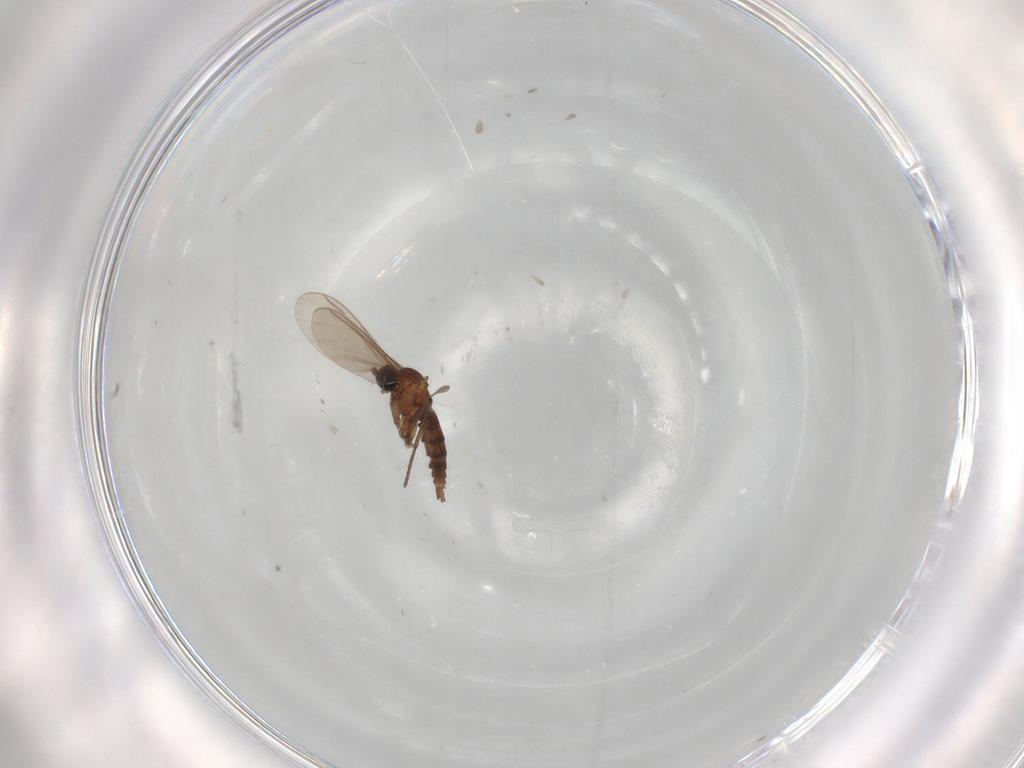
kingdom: Animalia
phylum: Arthropoda
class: Insecta
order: Diptera
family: Sciaridae
